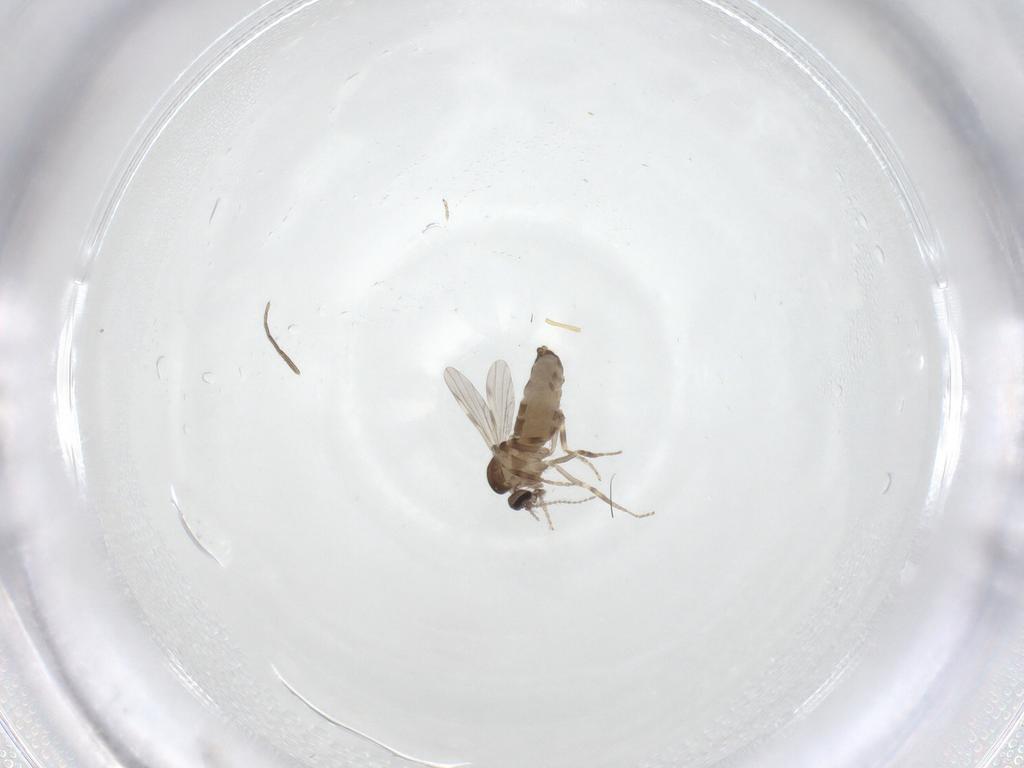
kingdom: Animalia
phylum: Arthropoda
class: Insecta
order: Diptera
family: Ceratopogonidae
